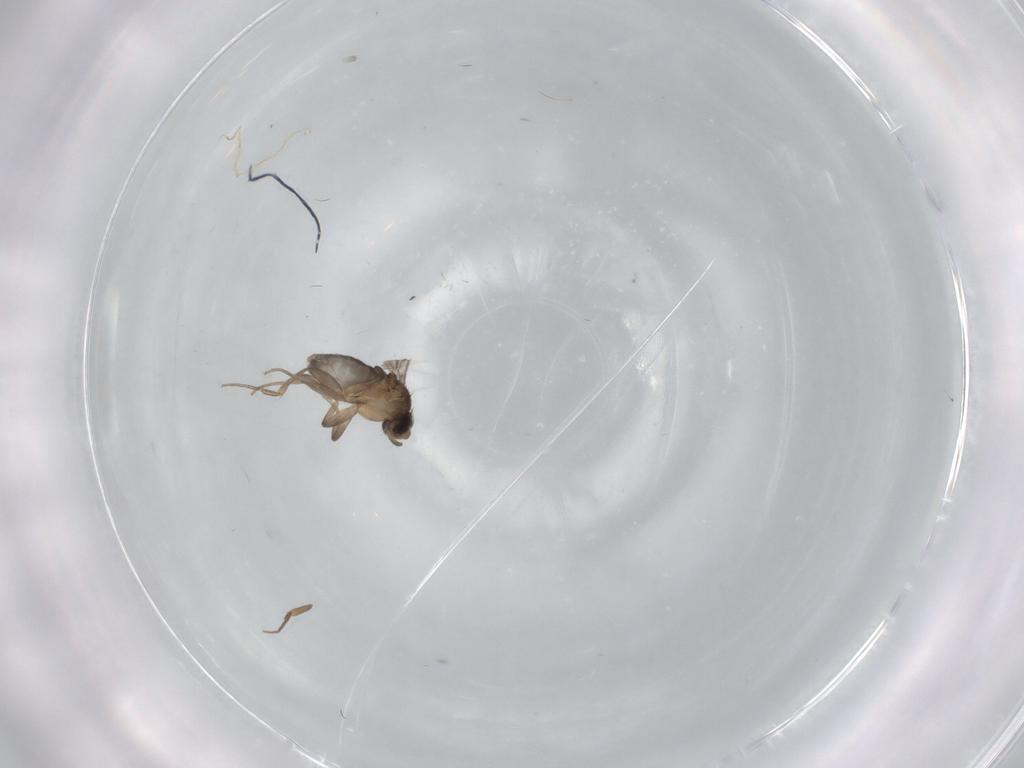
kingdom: Animalia
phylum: Arthropoda
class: Insecta
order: Diptera
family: Phoridae
